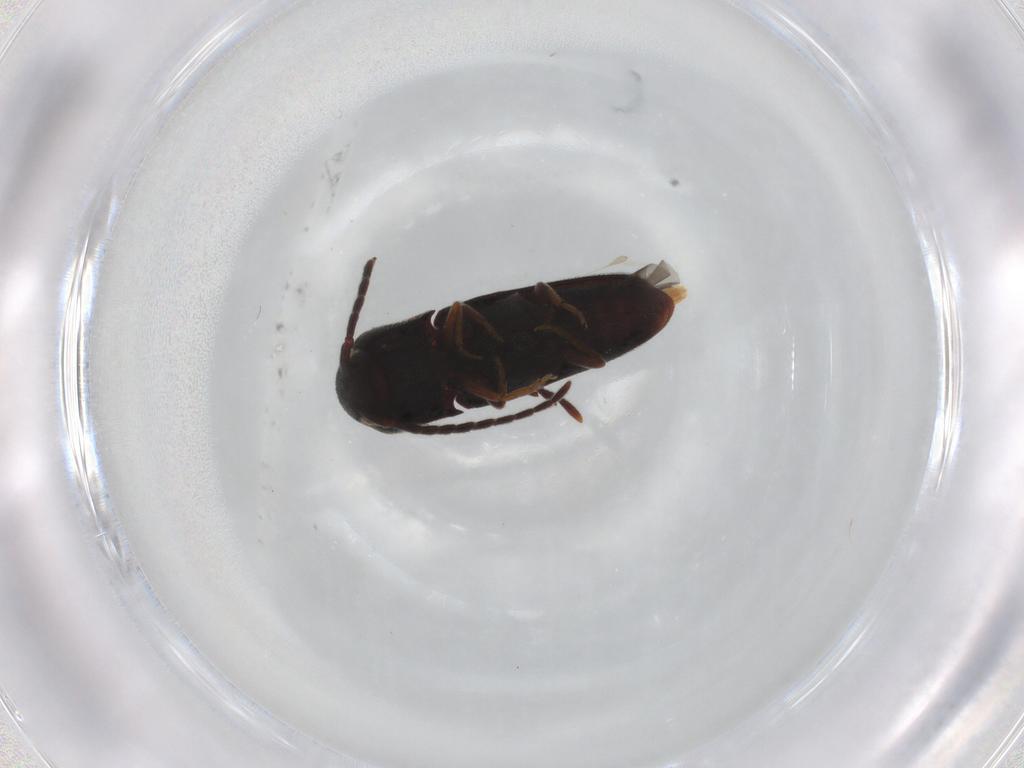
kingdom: Animalia
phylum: Arthropoda
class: Insecta
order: Coleoptera
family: Eucnemidae
